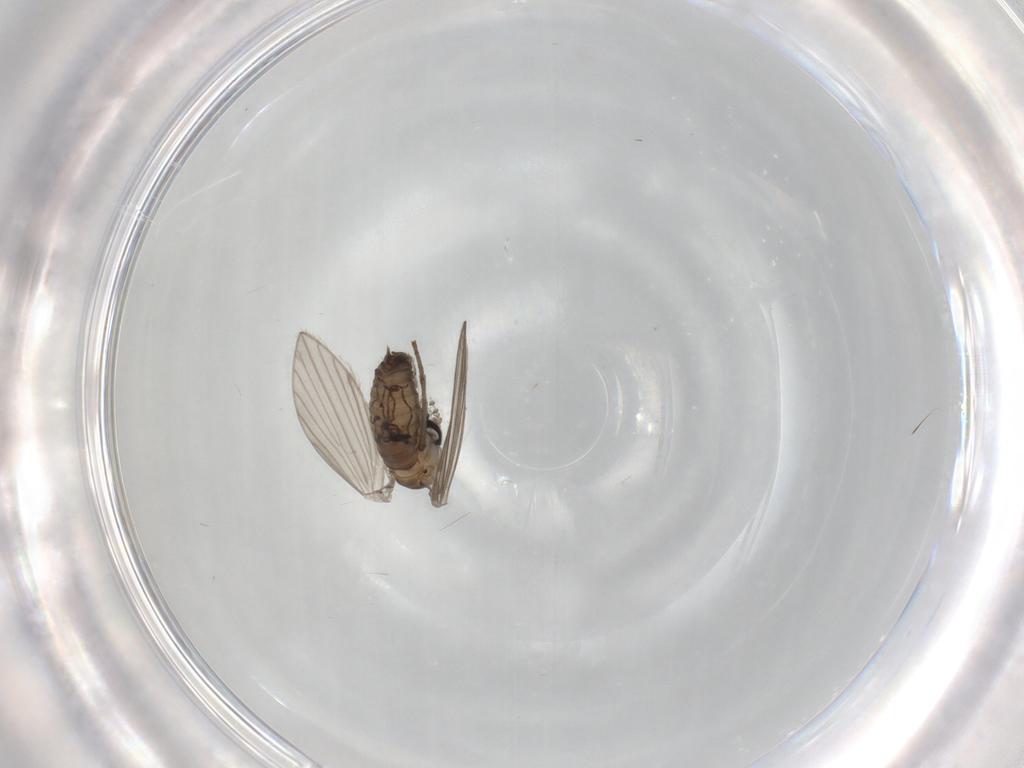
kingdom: Animalia
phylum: Arthropoda
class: Insecta
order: Diptera
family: Psychodidae
